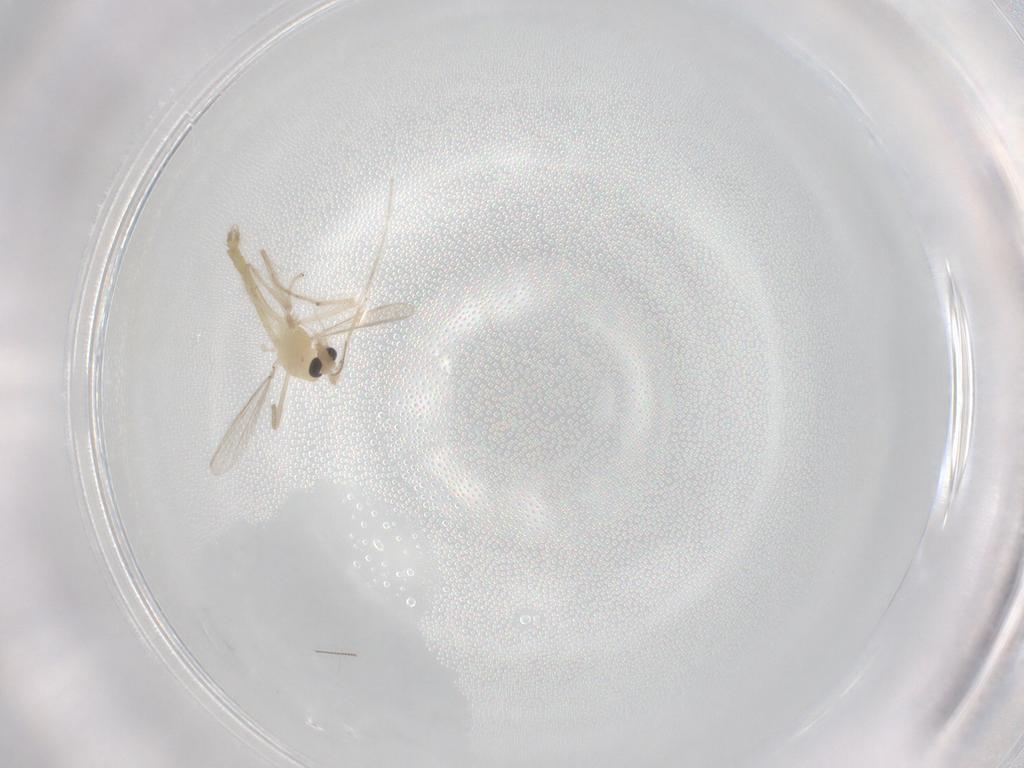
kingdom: Animalia
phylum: Arthropoda
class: Insecta
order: Diptera
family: Chironomidae
